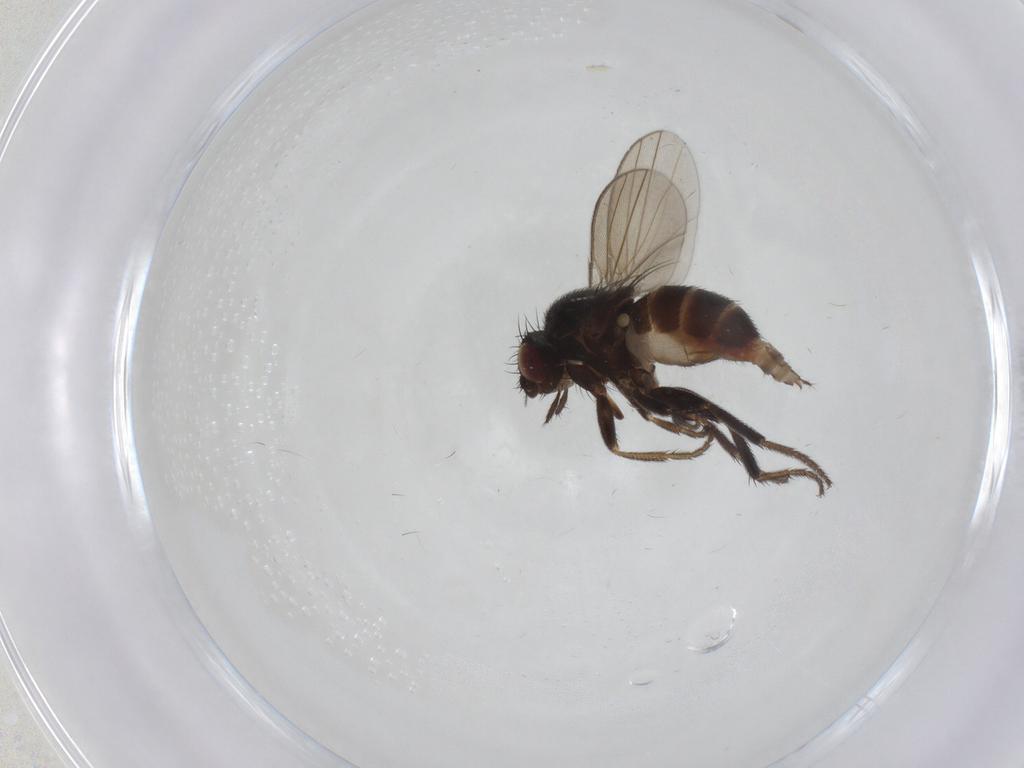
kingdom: Animalia
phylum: Arthropoda
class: Insecta
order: Diptera
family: Milichiidae
